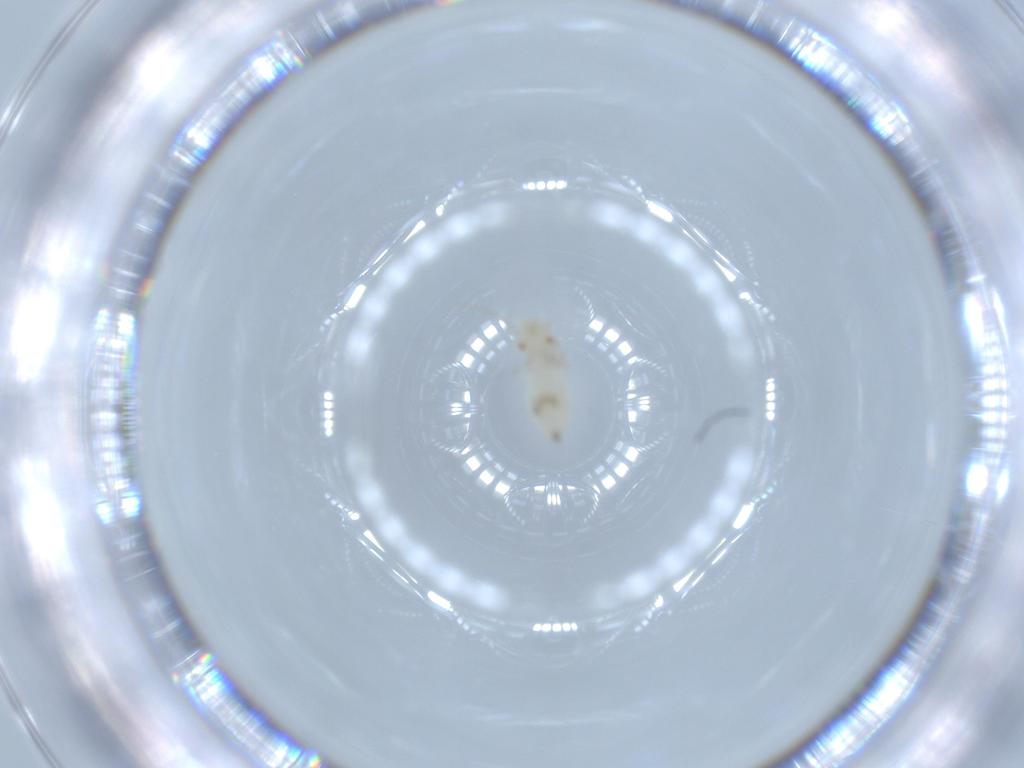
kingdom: Animalia
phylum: Arthropoda
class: Insecta
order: Psocodea
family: Caeciliusidae
